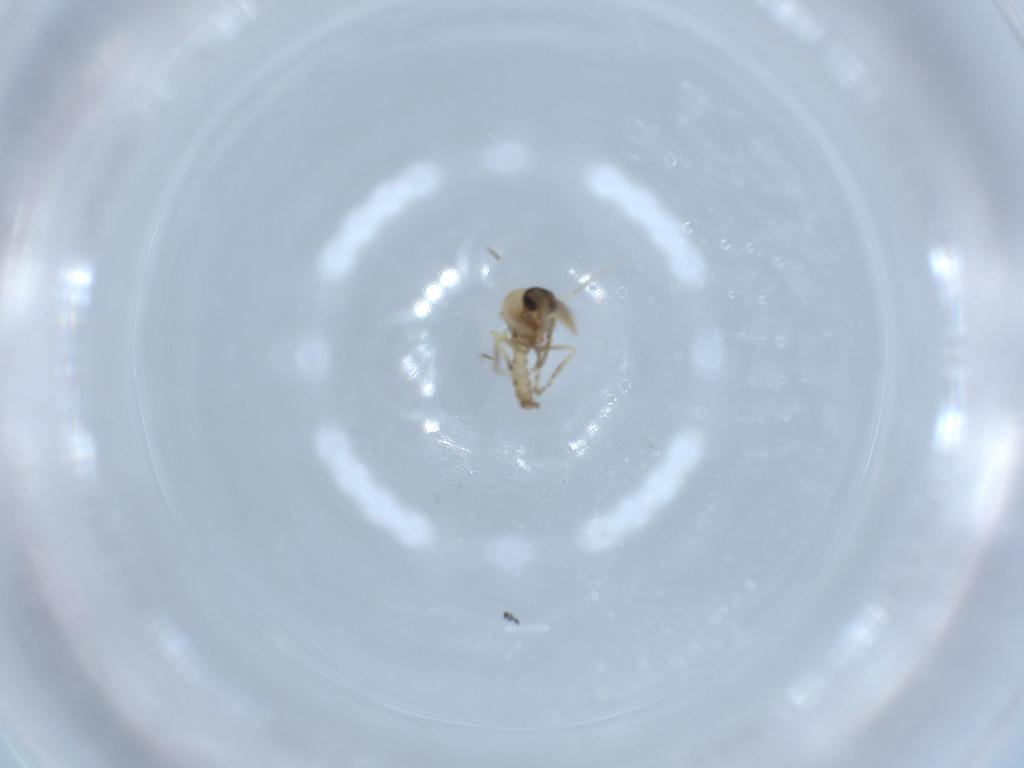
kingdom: Animalia
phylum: Arthropoda
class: Insecta
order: Diptera
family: Ceratopogonidae
